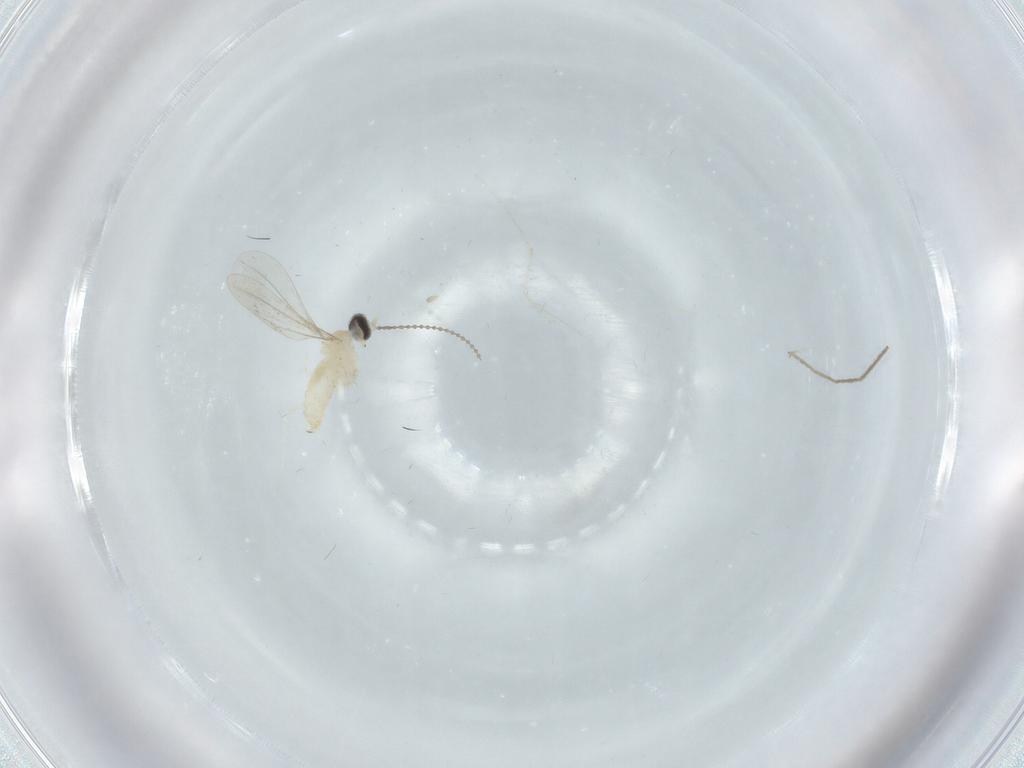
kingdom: Animalia
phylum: Arthropoda
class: Insecta
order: Diptera
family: Cecidomyiidae
